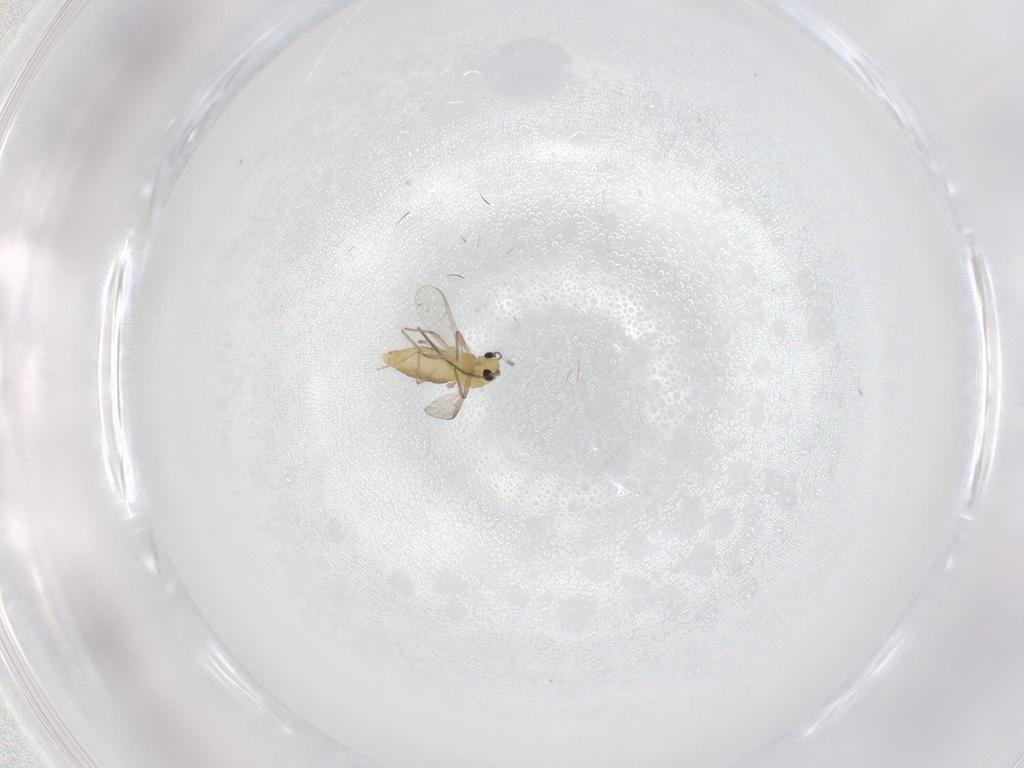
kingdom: Animalia
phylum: Arthropoda
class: Insecta
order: Diptera
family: Chironomidae
